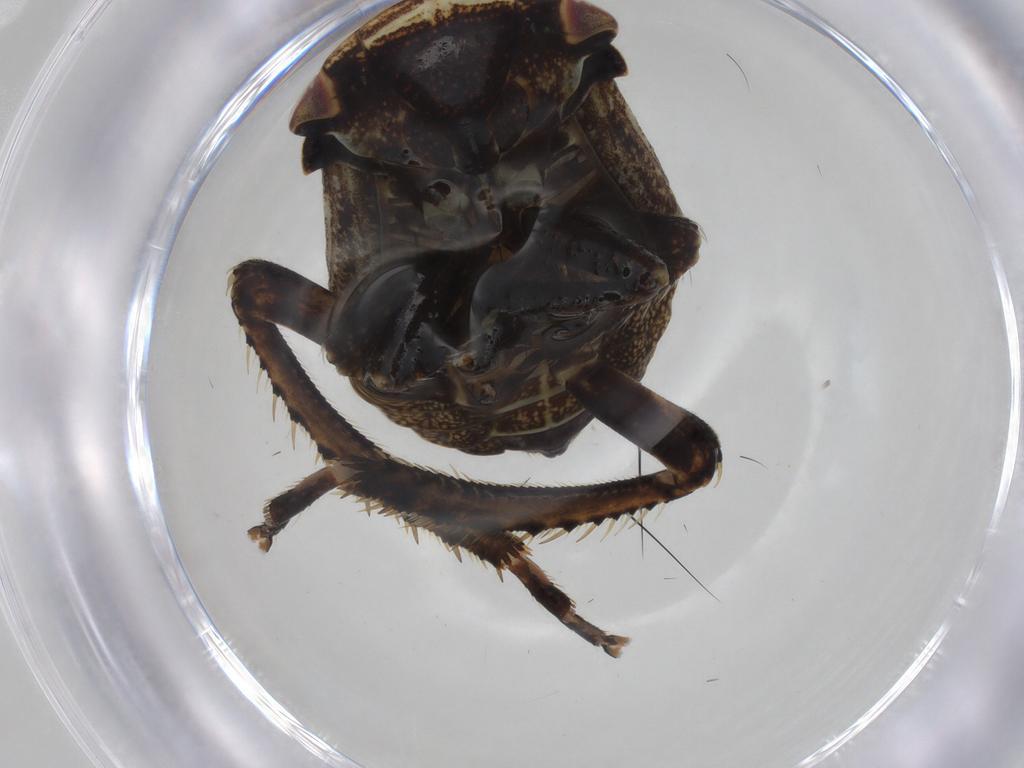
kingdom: Animalia
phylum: Arthropoda
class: Insecta
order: Hemiptera
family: Cicadellidae
